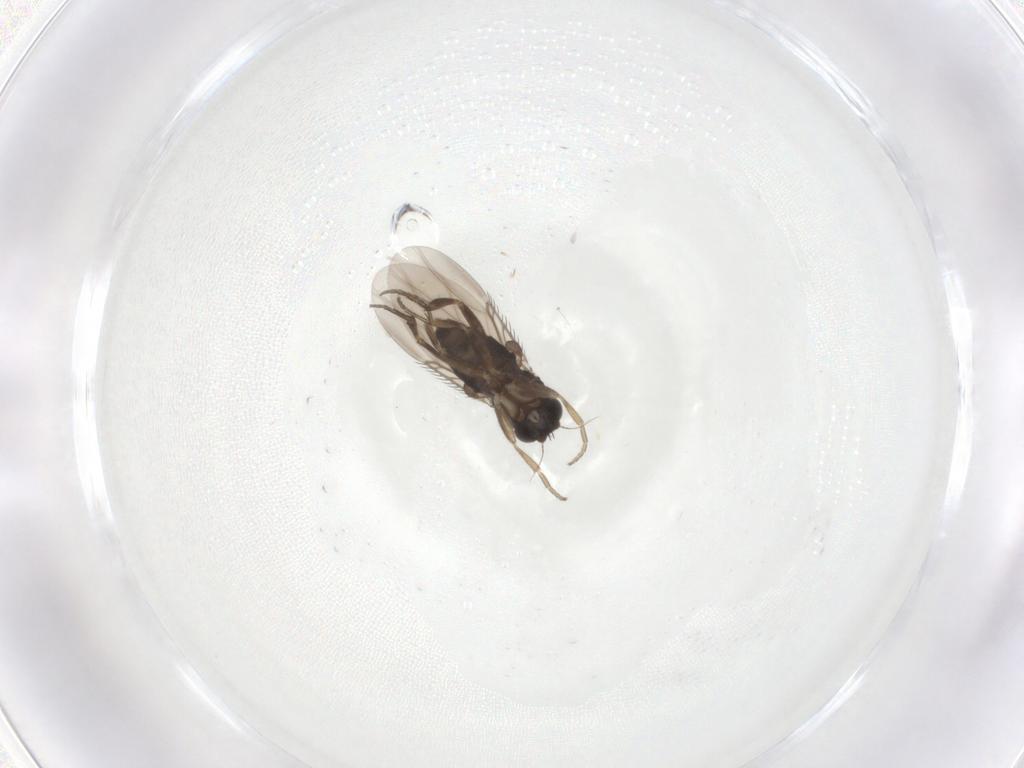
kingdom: Animalia
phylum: Arthropoda
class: Insecta
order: Diptera
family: Phoridae
